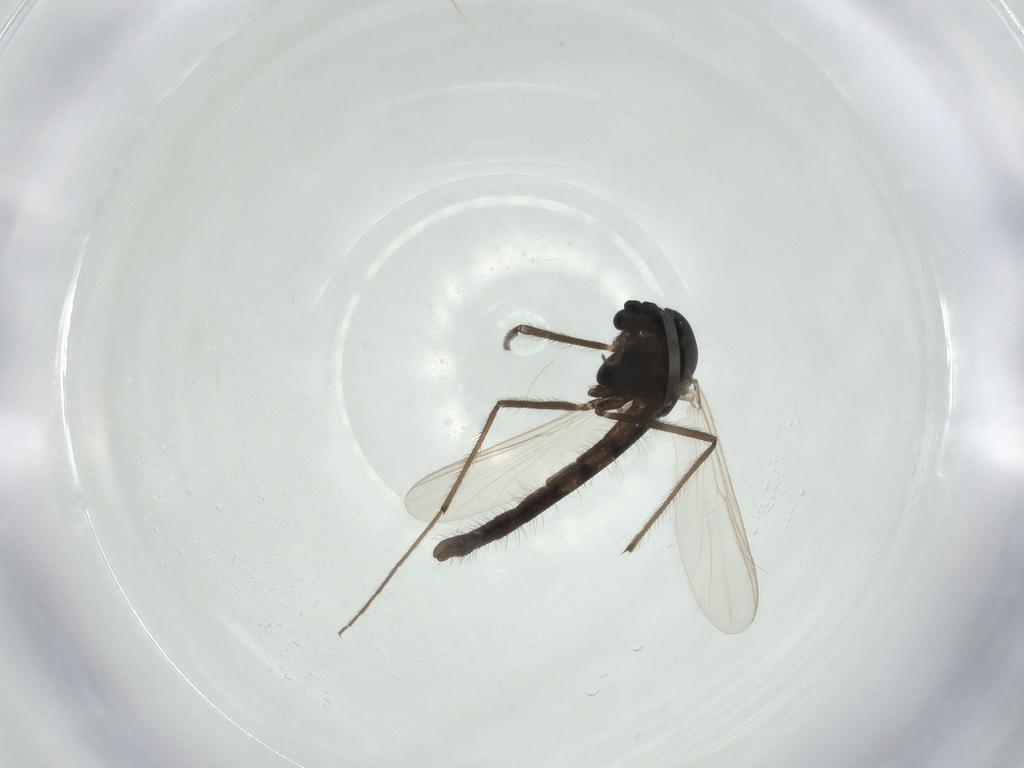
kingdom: Animalia
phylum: Arthropoda
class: Insecta
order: Diptera
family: Chironomidae
